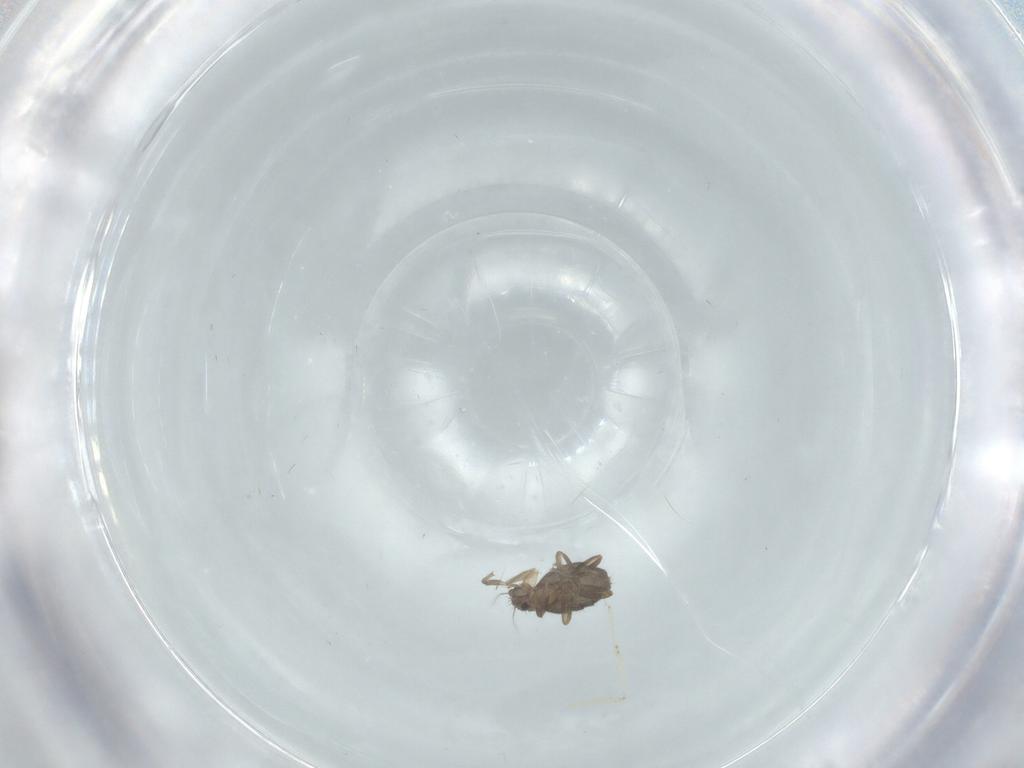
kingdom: Animalia
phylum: Arthropoda
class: Insecta
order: Diptera
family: Phoridae
